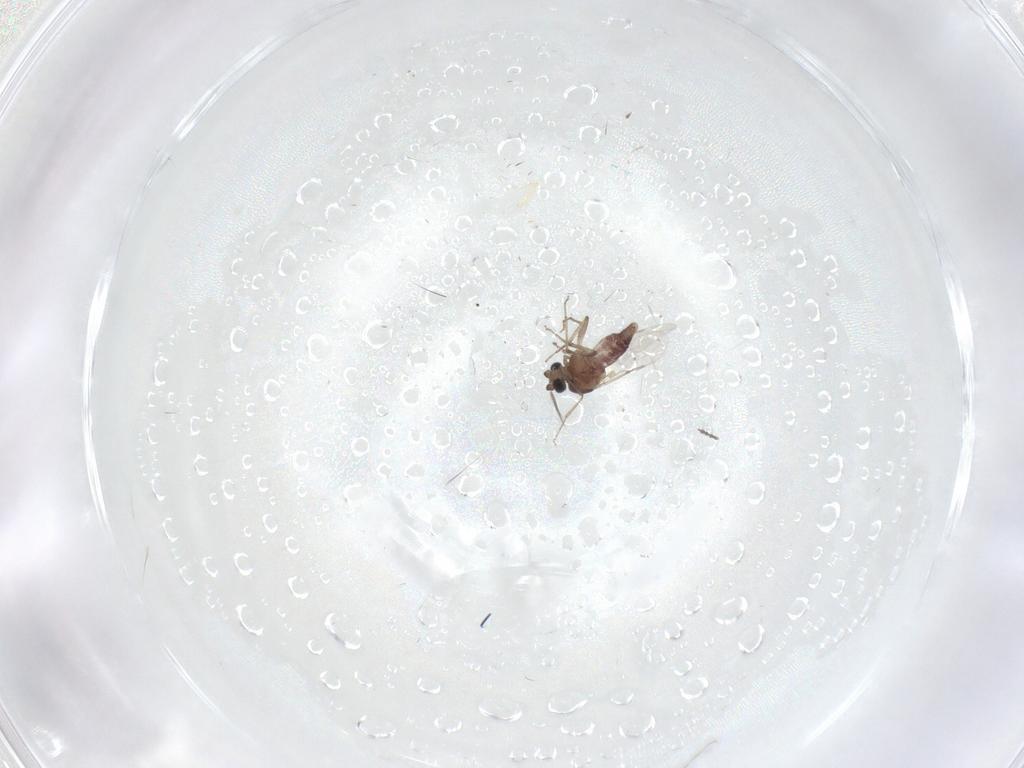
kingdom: Animalia
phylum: Arthropoda
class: Insecta
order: Diptera
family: Ceratopogonidae
